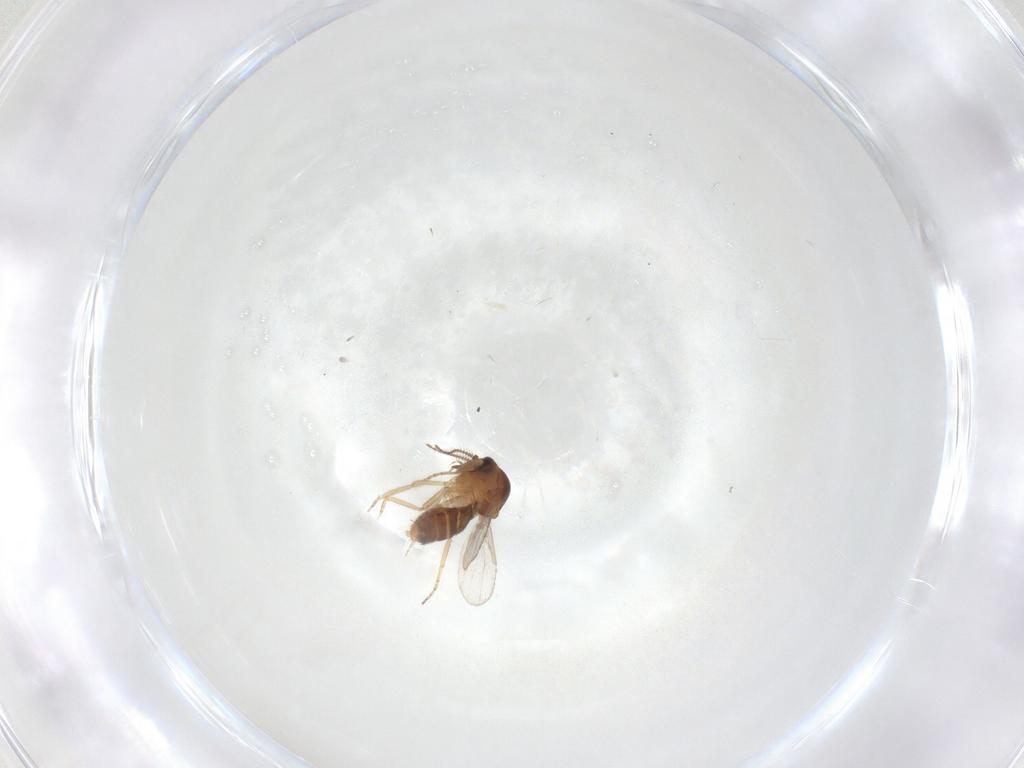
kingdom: Animalia
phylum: Arthropoda
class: Insecta
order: Diptera
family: Ceratopogonidae
